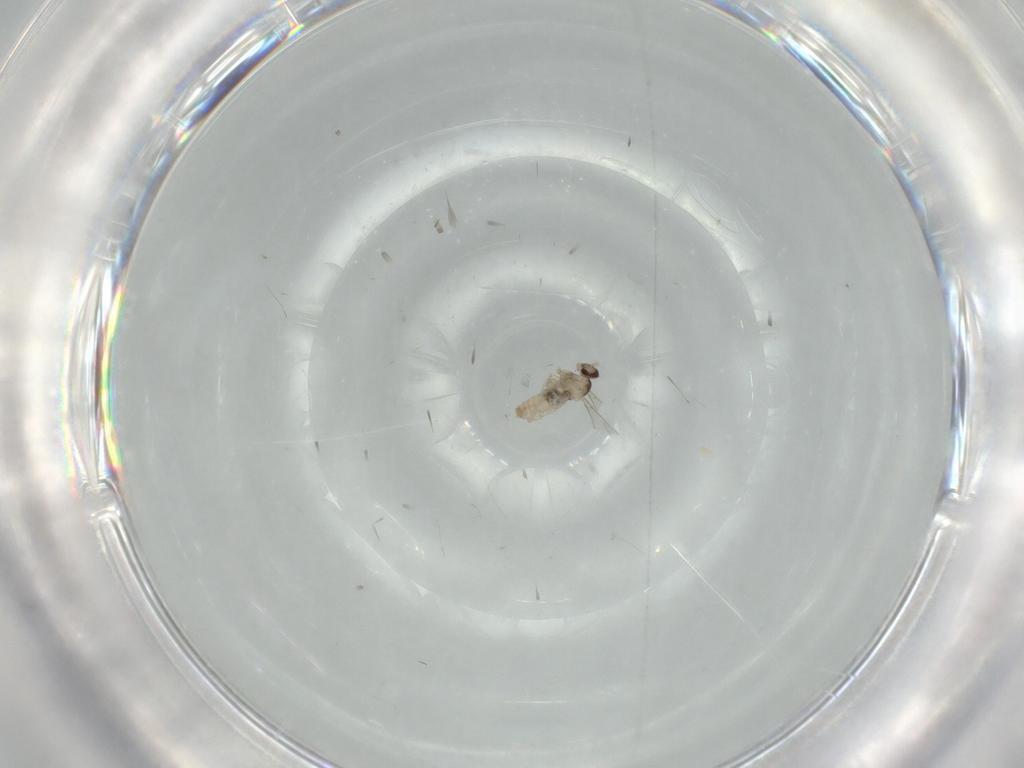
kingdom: Animalia
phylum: Arthropoda
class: Insecta
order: Diptera
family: Cecidomyiidae
